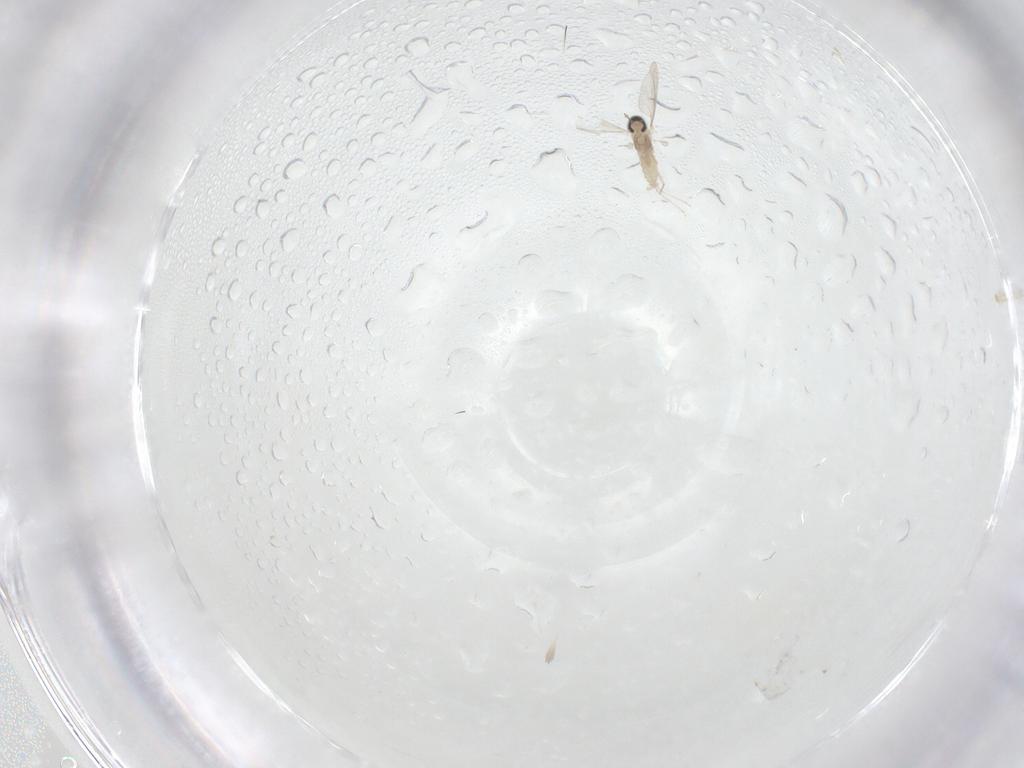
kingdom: Animalia
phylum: Arthropoda
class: Insecta
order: Diptera
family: Cecidomyiidae
